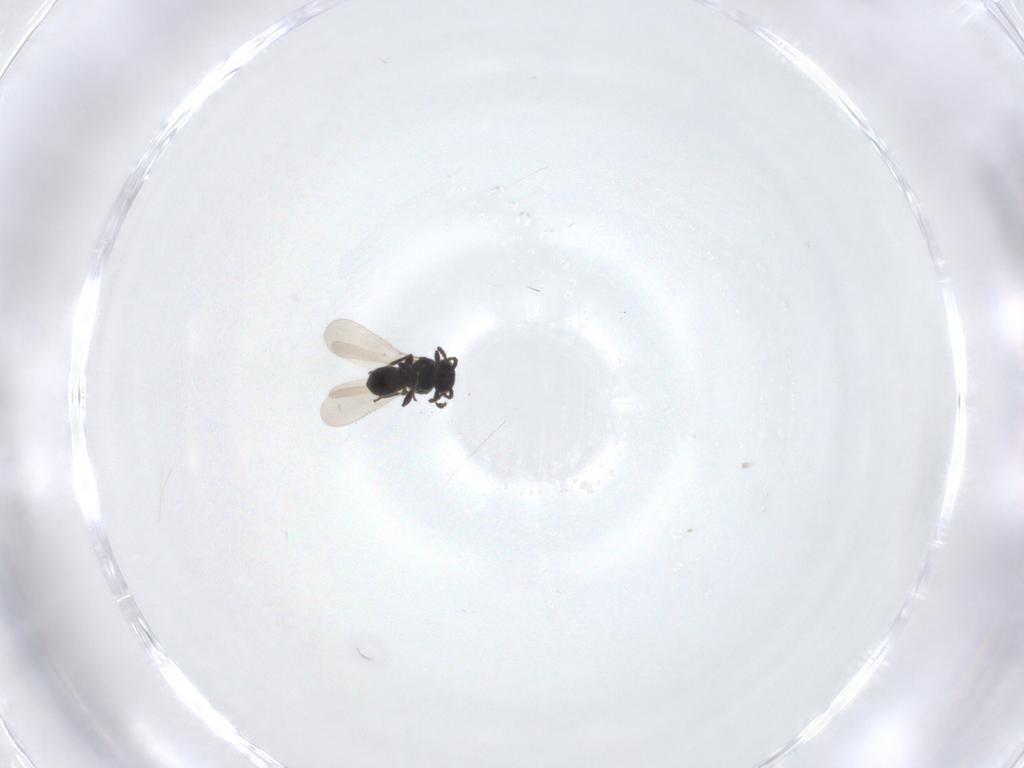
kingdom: Animalia
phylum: Arthropoda
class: Insecta
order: Hymenoptera
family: Platygastridae
